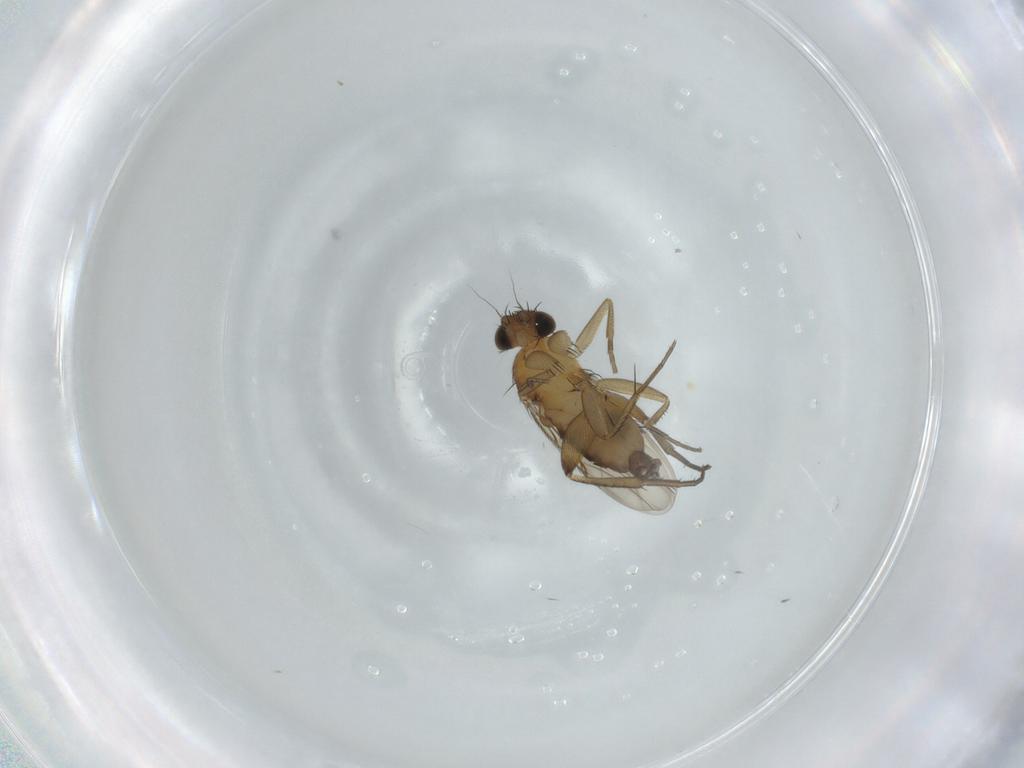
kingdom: Animalia
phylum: Arthropoda
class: Insecta
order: Diptera
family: Phoridae
